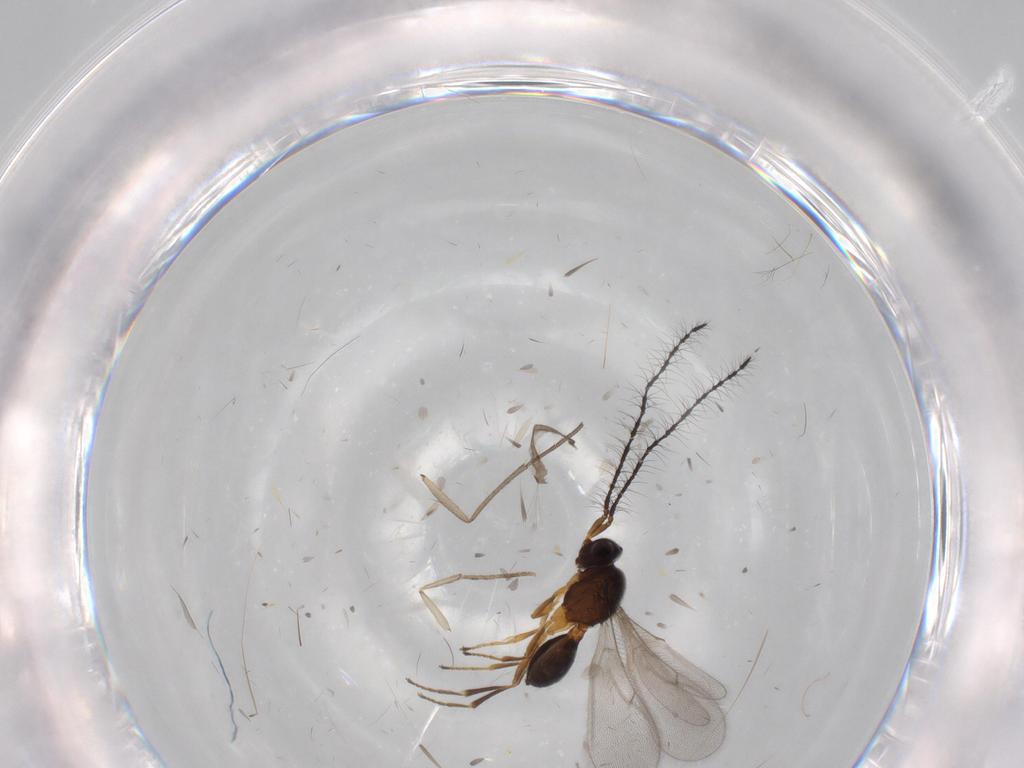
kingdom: Animalia
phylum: Arthropoda
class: Insecta
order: Hymenoptera
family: Scelionidae
